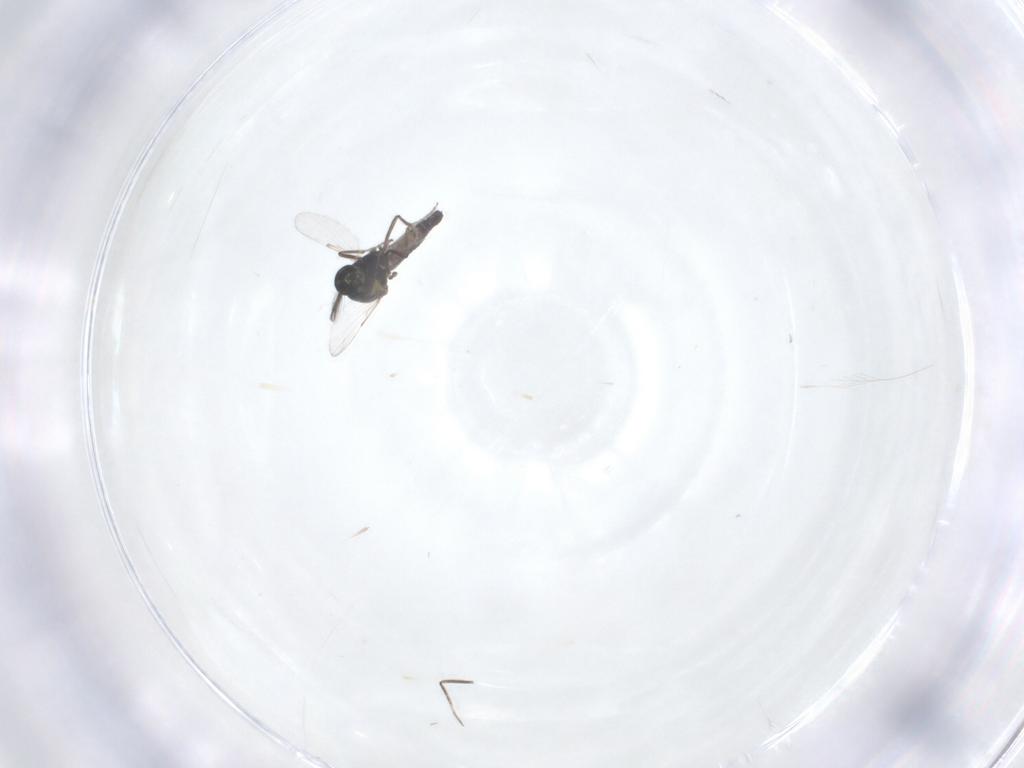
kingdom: Animalia
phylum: Arthropoda
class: Insecta
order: Diptera
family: Ceratopogonidae
